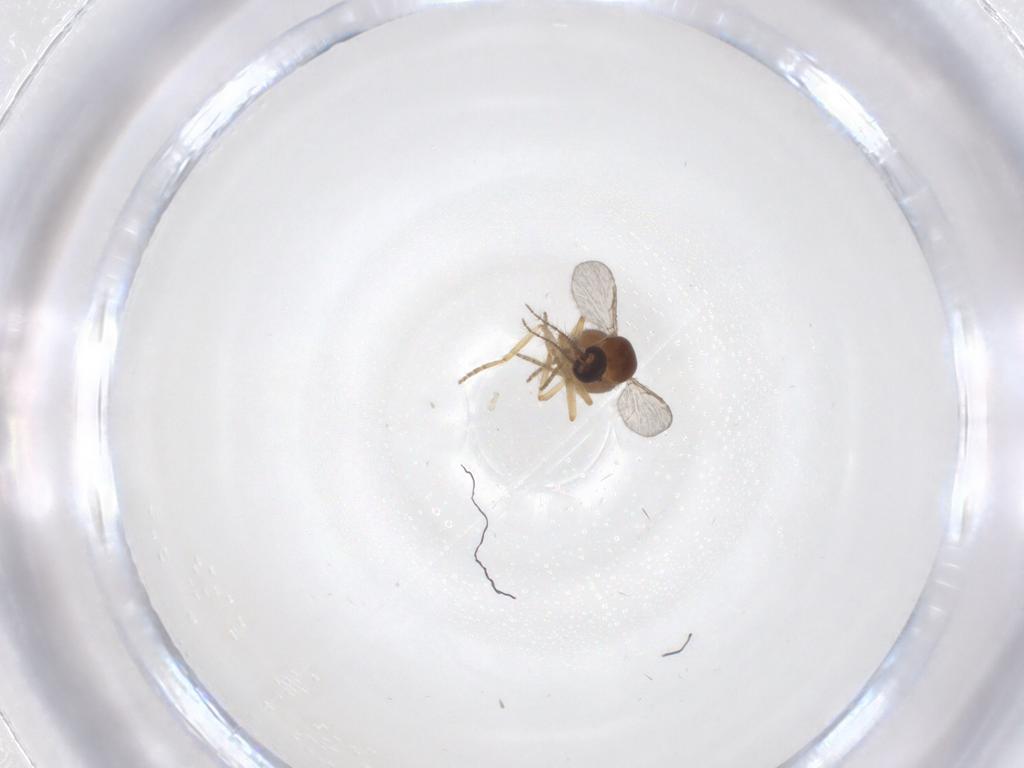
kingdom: Animalia
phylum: Arthropoda
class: Insecta
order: Diptera
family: Ceratopogonidae
